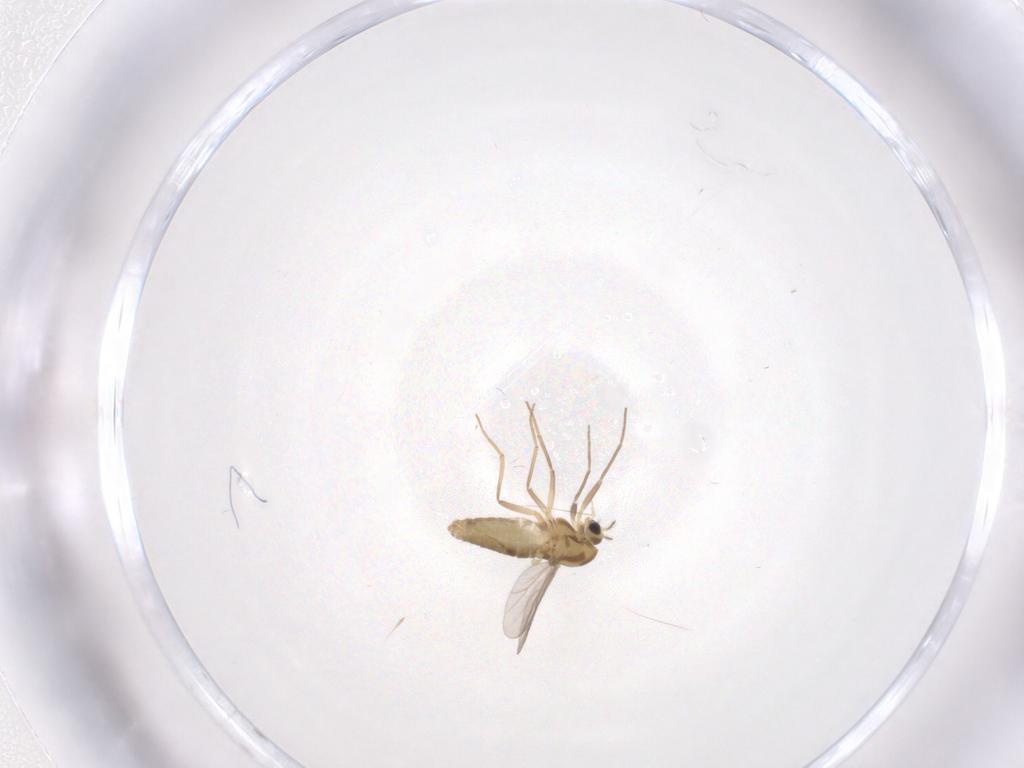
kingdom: Animalia
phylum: Arthropoda
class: Insecta
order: Diptera
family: Chironomidae
